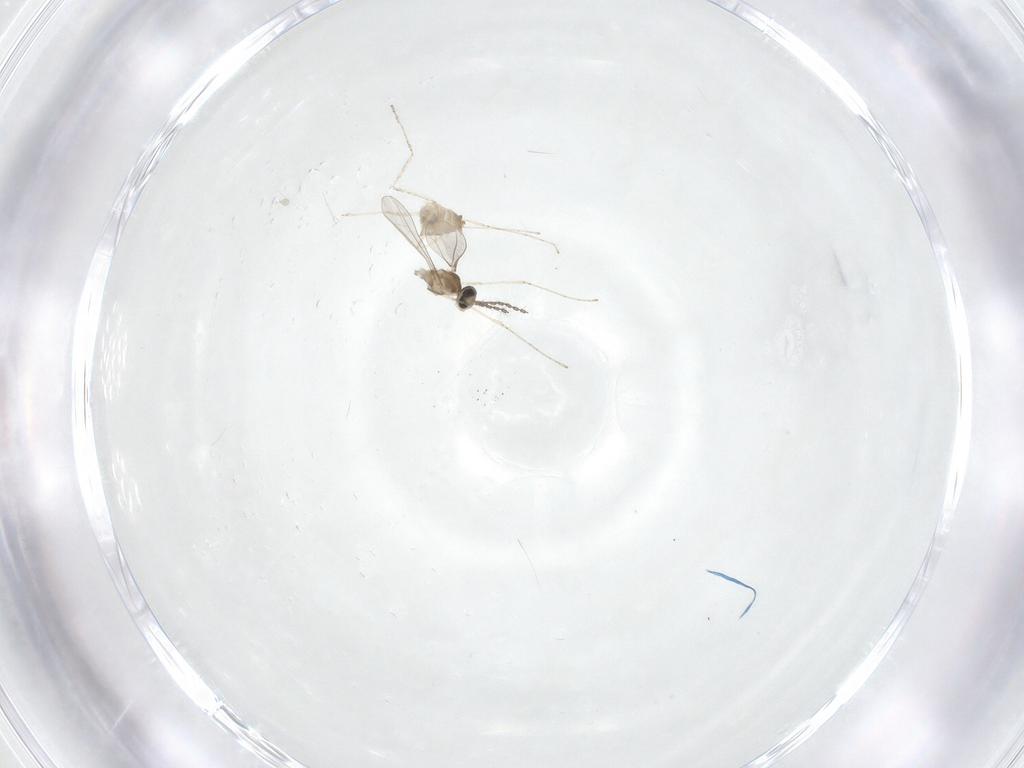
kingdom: Animalia
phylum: Arthropoda
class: Insecta
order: Diptera
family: Cecidomyiidae
